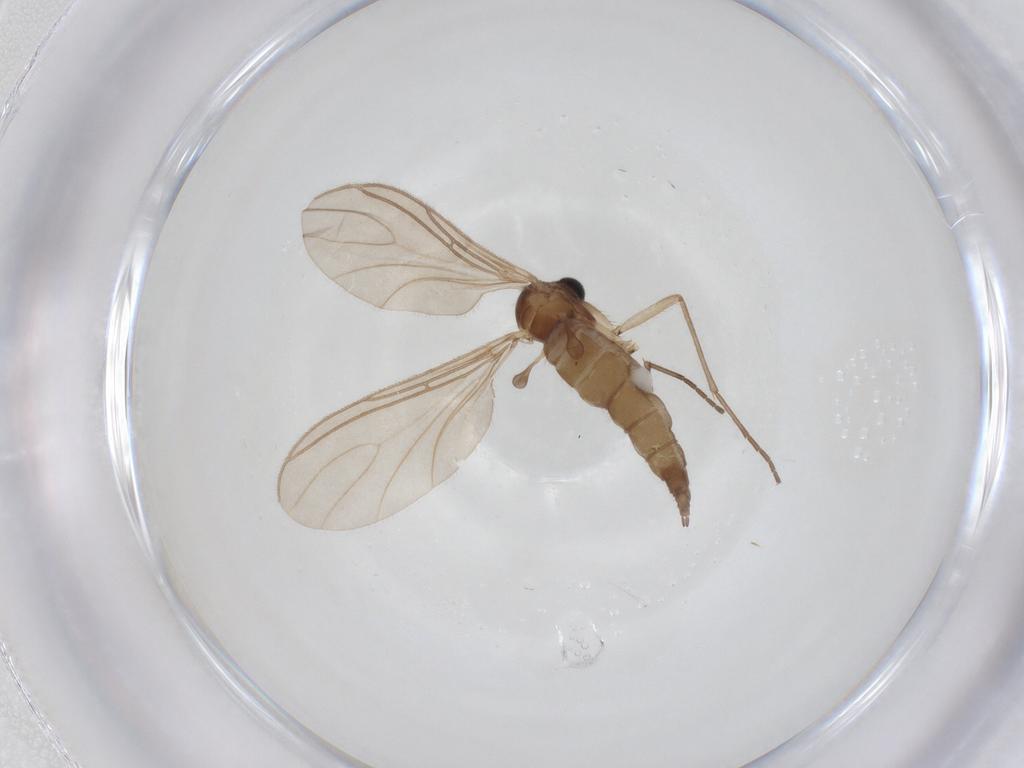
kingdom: Animalia
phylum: Arthropoda
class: Insecta
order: Diptera
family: Sciaridae
